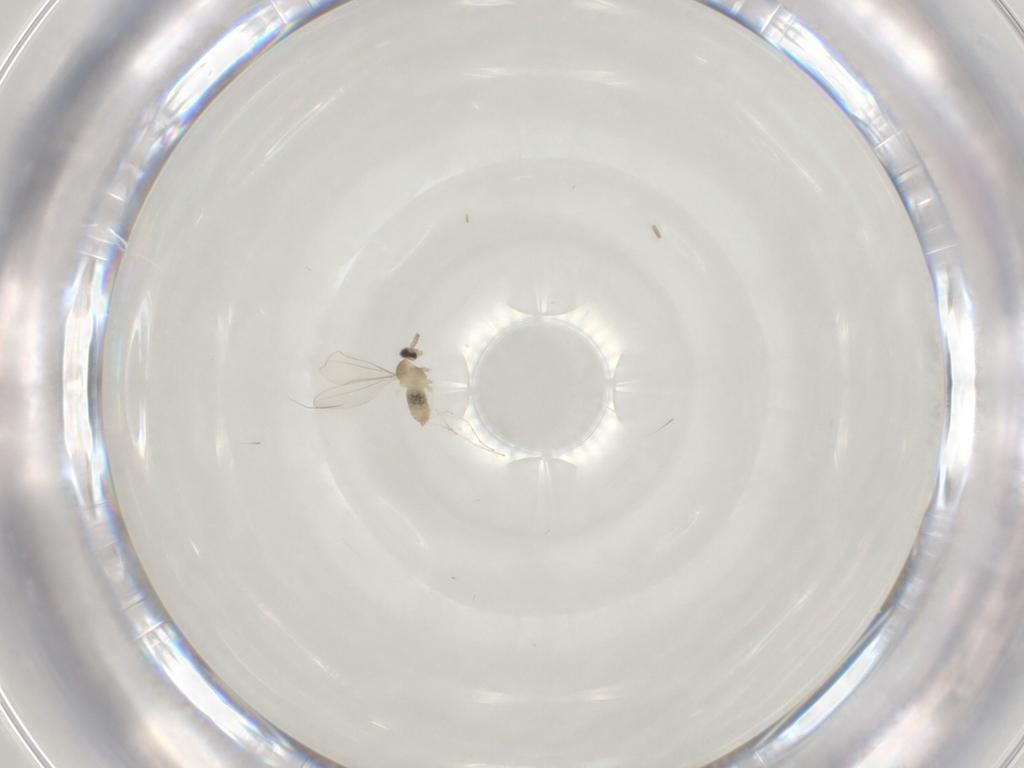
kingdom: Animalia
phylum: Arthropoda
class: Insecta
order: Diptera
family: Cecidomyiidae
